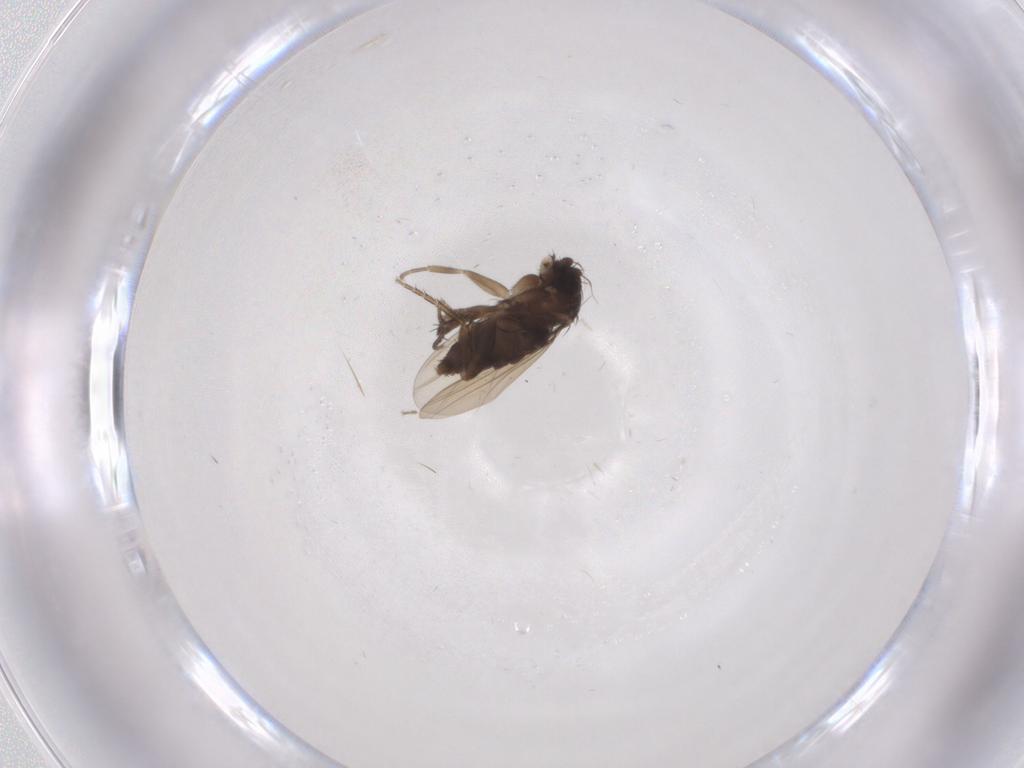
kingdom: Animalia
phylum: Arthropoda
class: Insecta
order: Diptera
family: Phoridae
